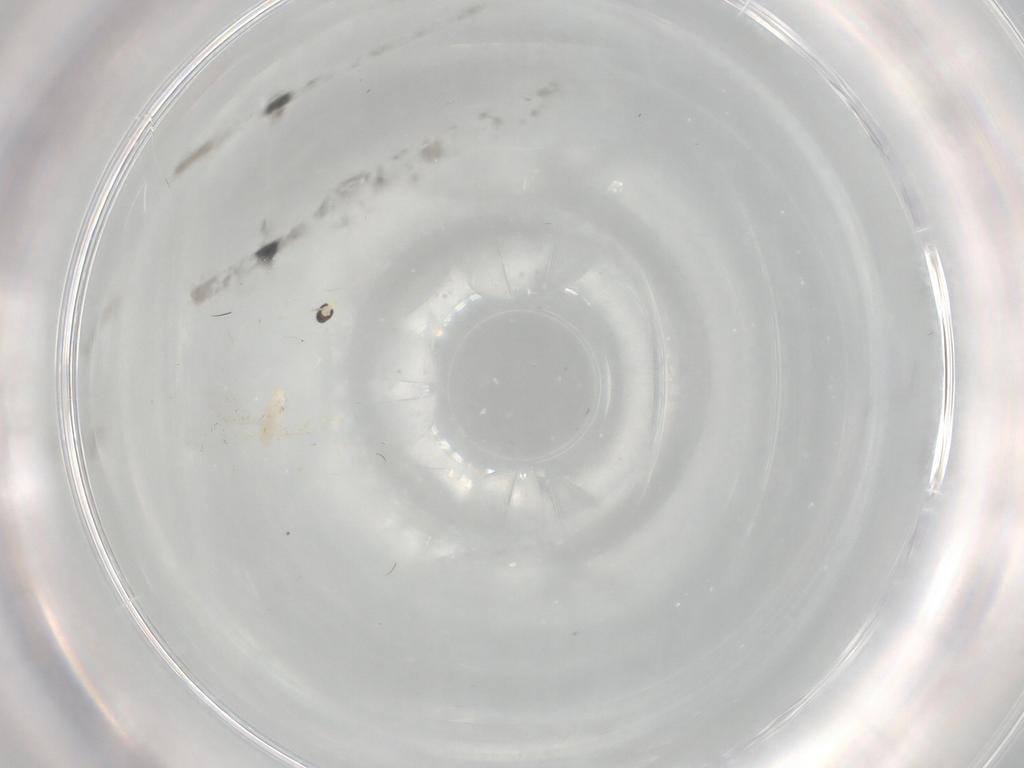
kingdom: Animalia
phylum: Arthropoda
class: Insecta
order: Diptera
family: Cecidomyiidae
